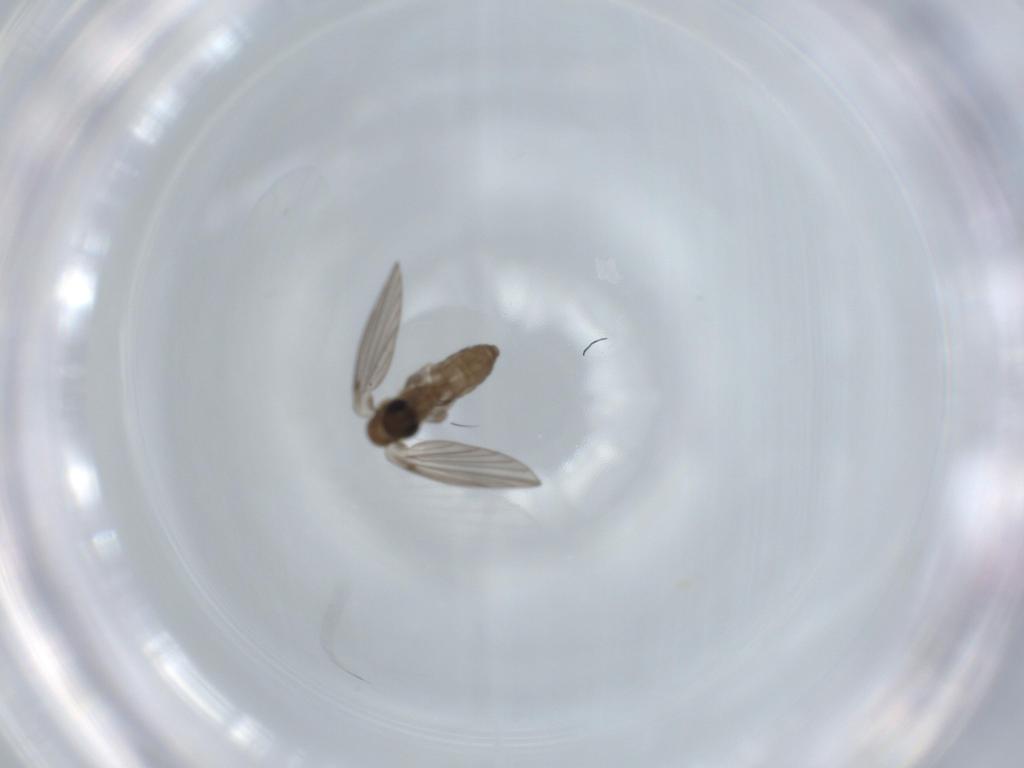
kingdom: Animalia
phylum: Arthropoda
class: Insecta
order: Diptera
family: Psychodidae
